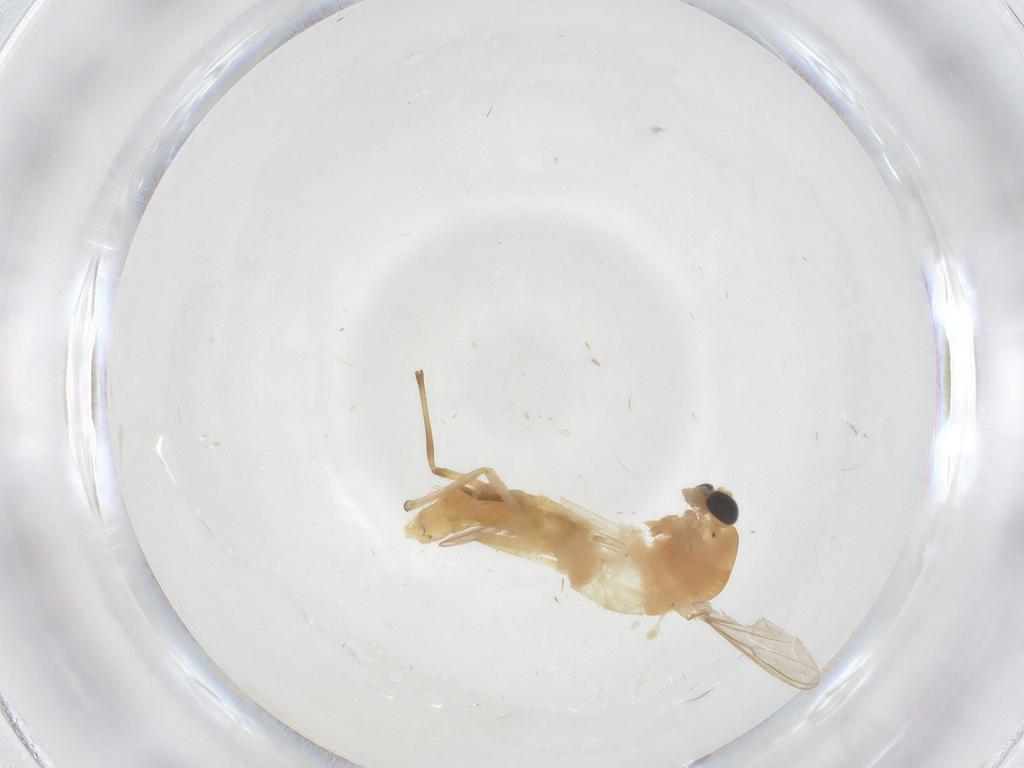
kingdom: Animalia
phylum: Arthropoda
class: Insecta
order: Diptera
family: Chironomidae
